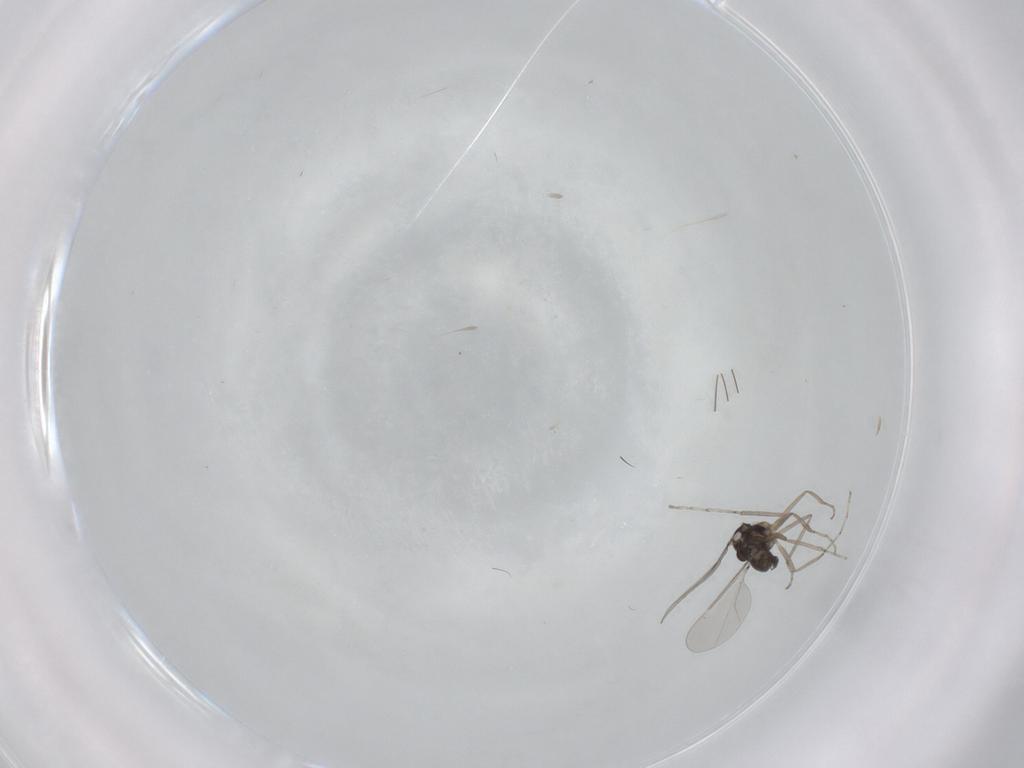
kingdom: Animalia
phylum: Arthropoda
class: Insecta
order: Diptera
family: Cecidomyiidae
